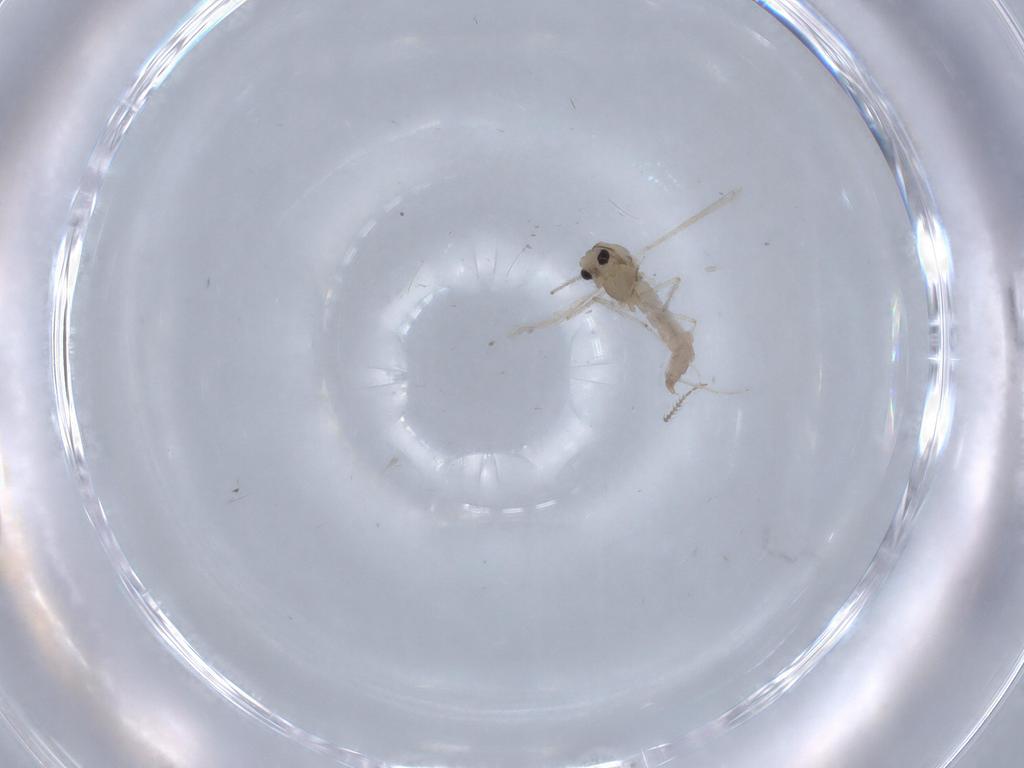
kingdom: Animalia
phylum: Arthropoda
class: Insecta
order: Diptera
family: Chironomidae
